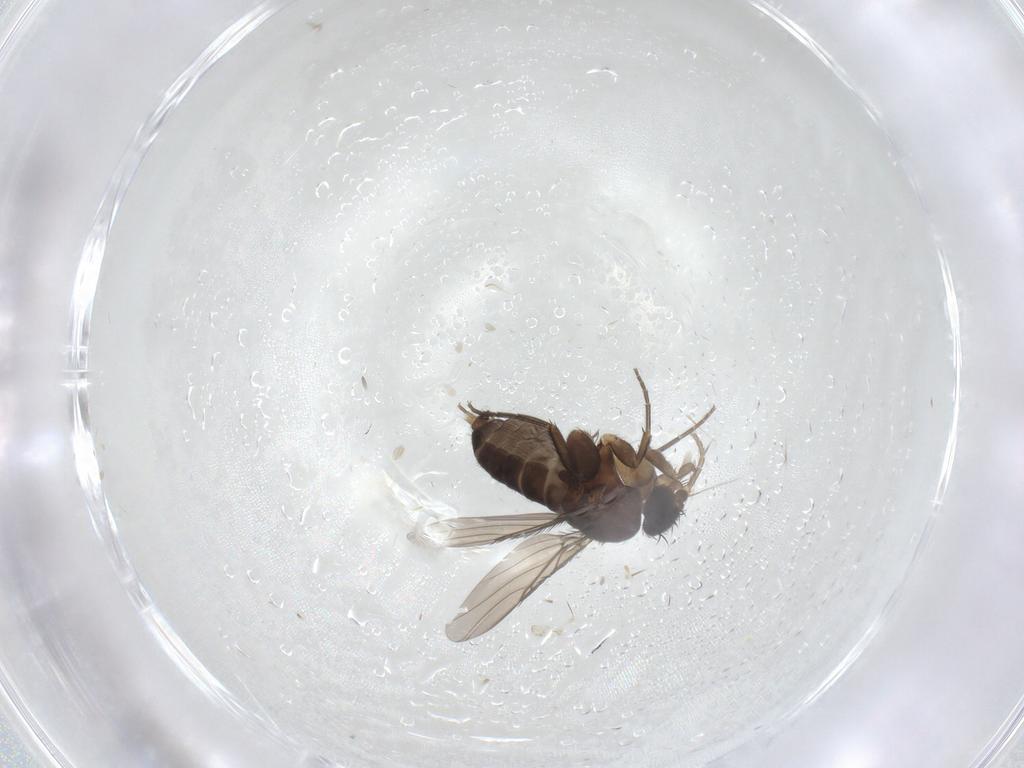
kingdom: Animalia
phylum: Arthropoda
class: Insecta
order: Diptera
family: Phoridae
